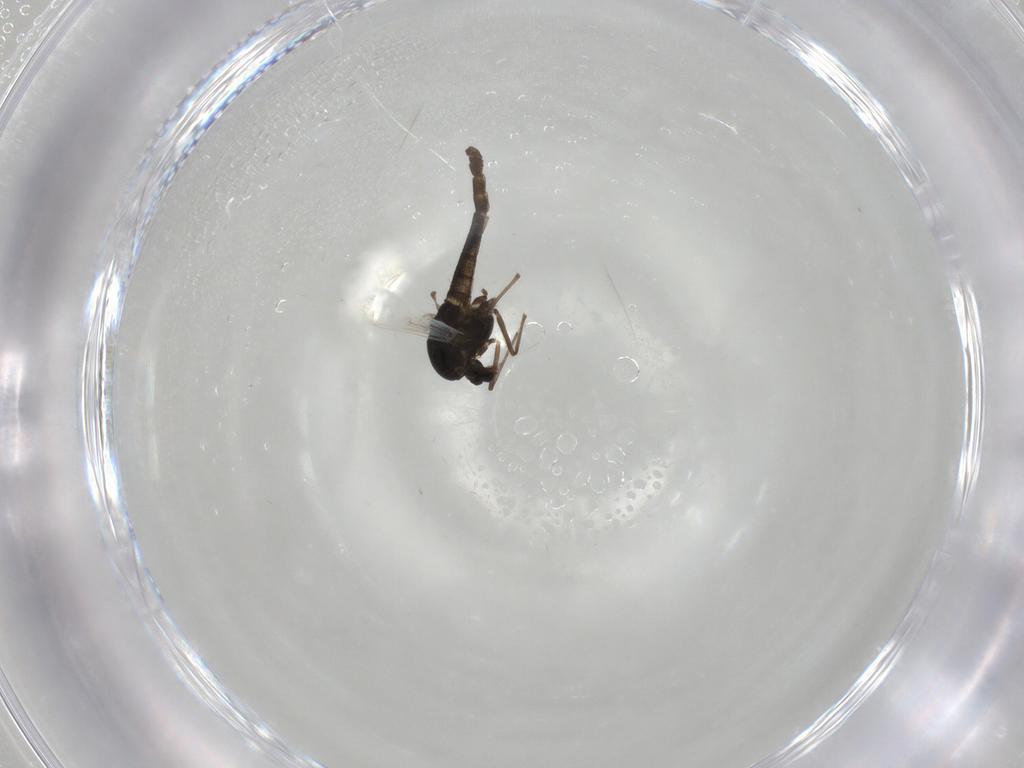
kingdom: Animalia
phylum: Arthropoda
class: Insecta
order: Diptera
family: Chironomidae
